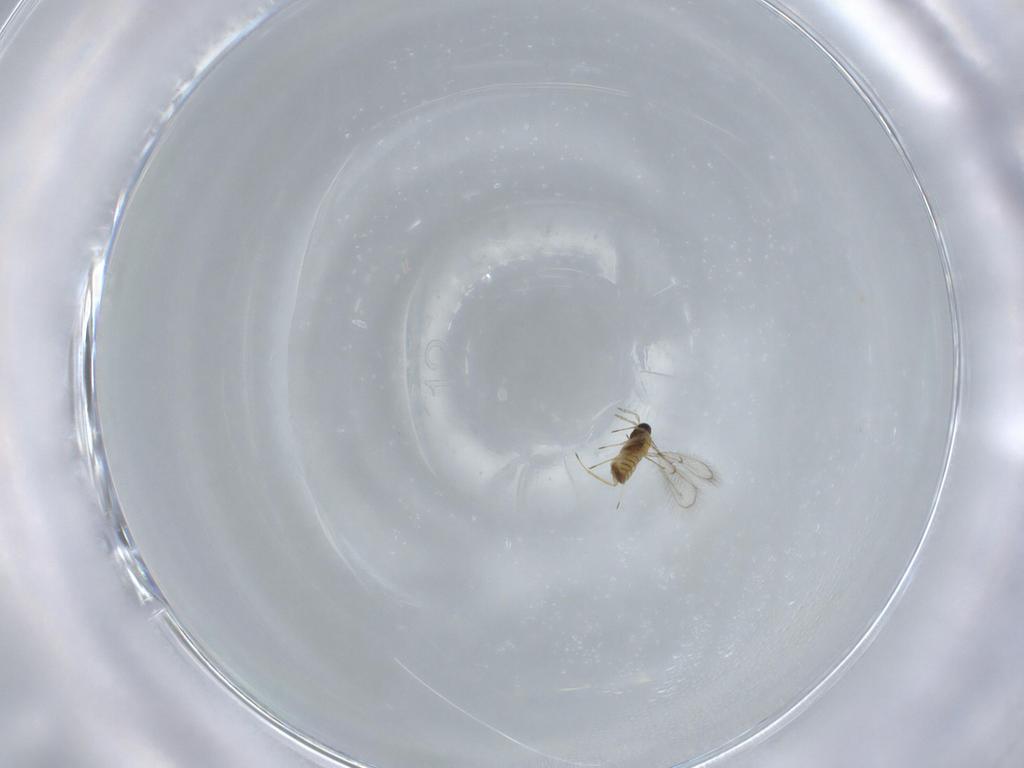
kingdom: Animalia
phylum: Arthropoda
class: Insecta
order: Hymenoptera
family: Trichogrammatidae
